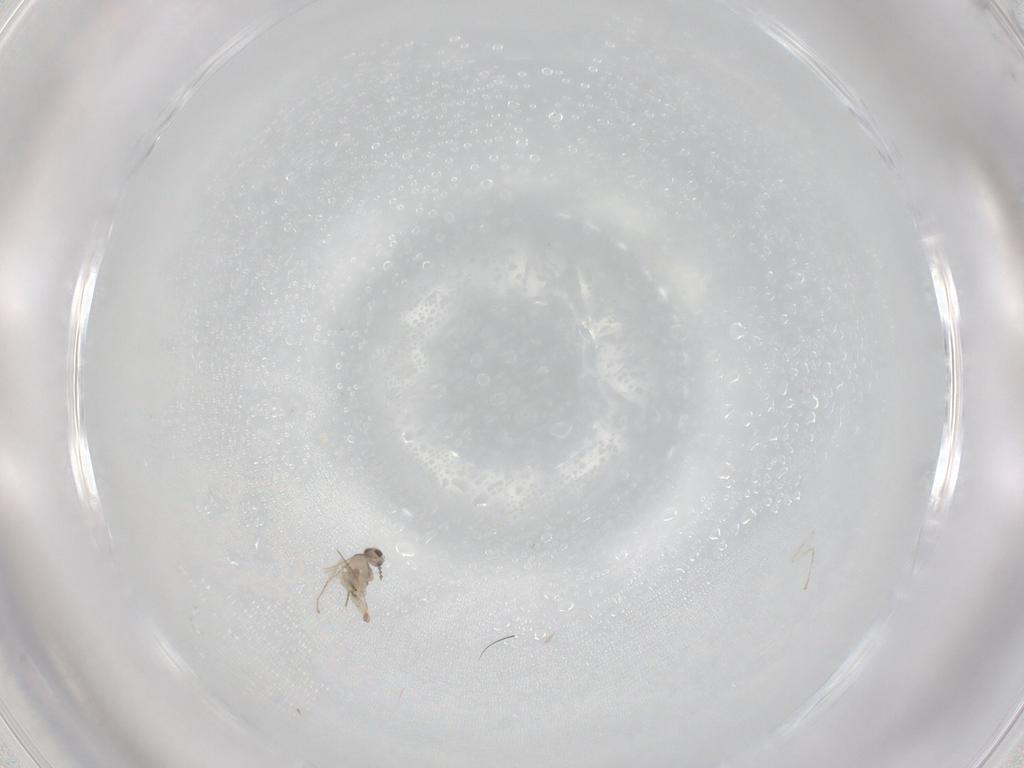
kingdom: Animalia
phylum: Arthropoda
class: Insecta
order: Diptera
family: Cecidomyiidae
